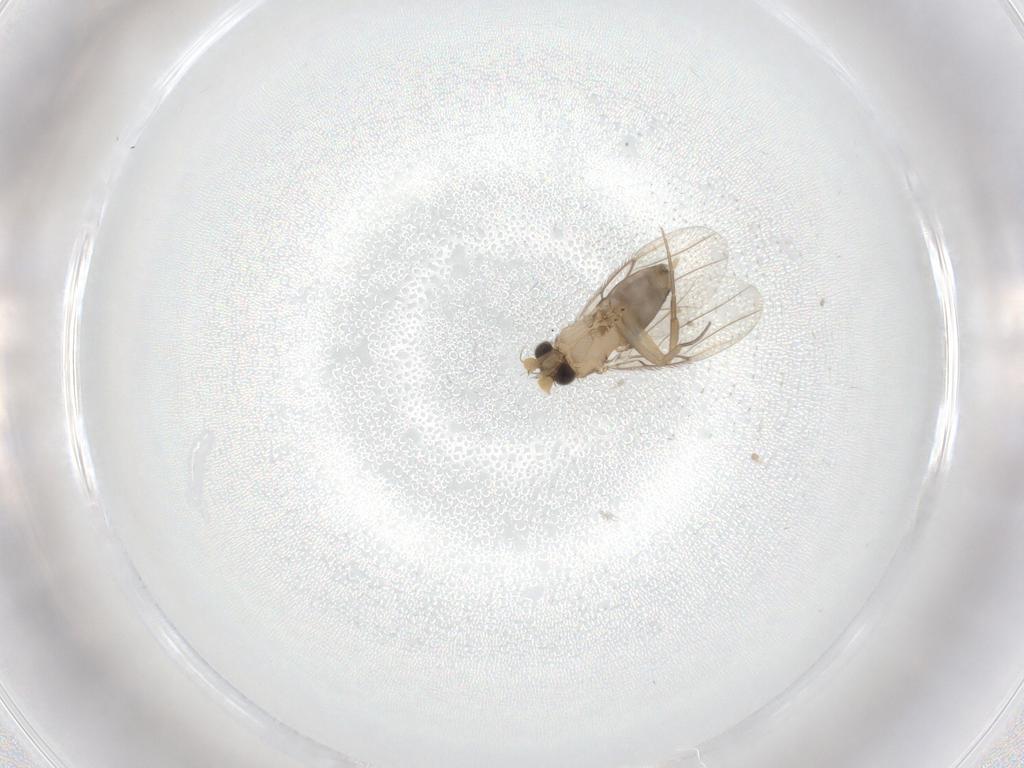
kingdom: Animalia
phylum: Arthropoda
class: Insecta
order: Diptera
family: Phoridae
